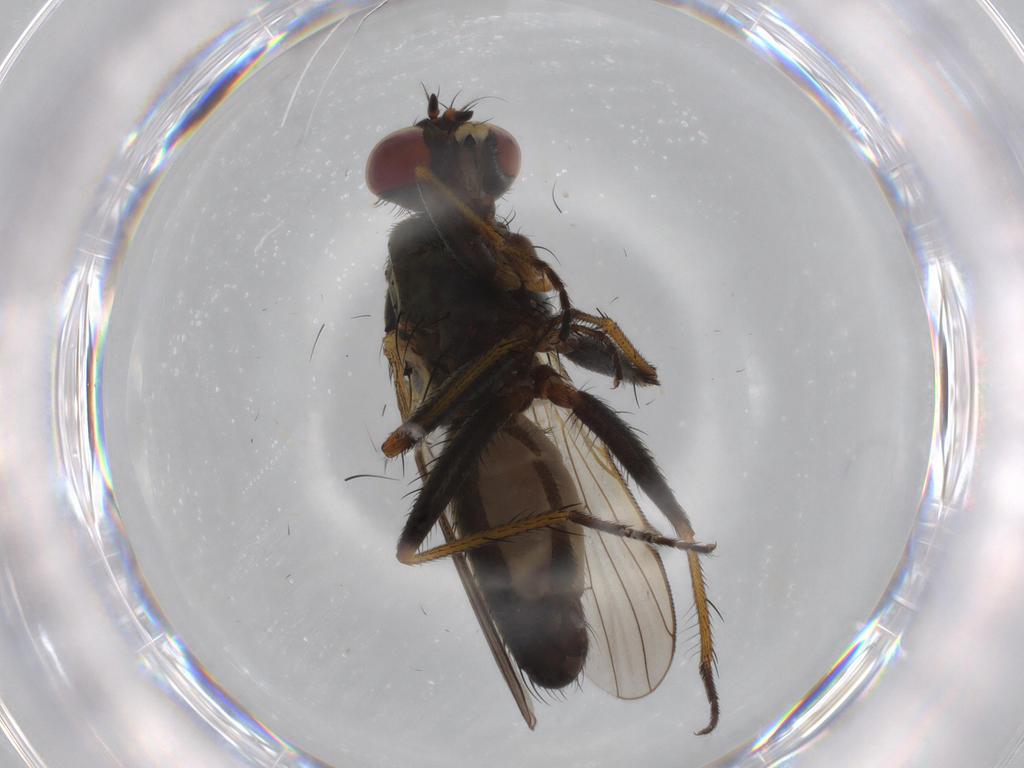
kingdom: Animalia
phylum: Arthropoda
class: Insecta
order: Diptera
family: Muscidae
